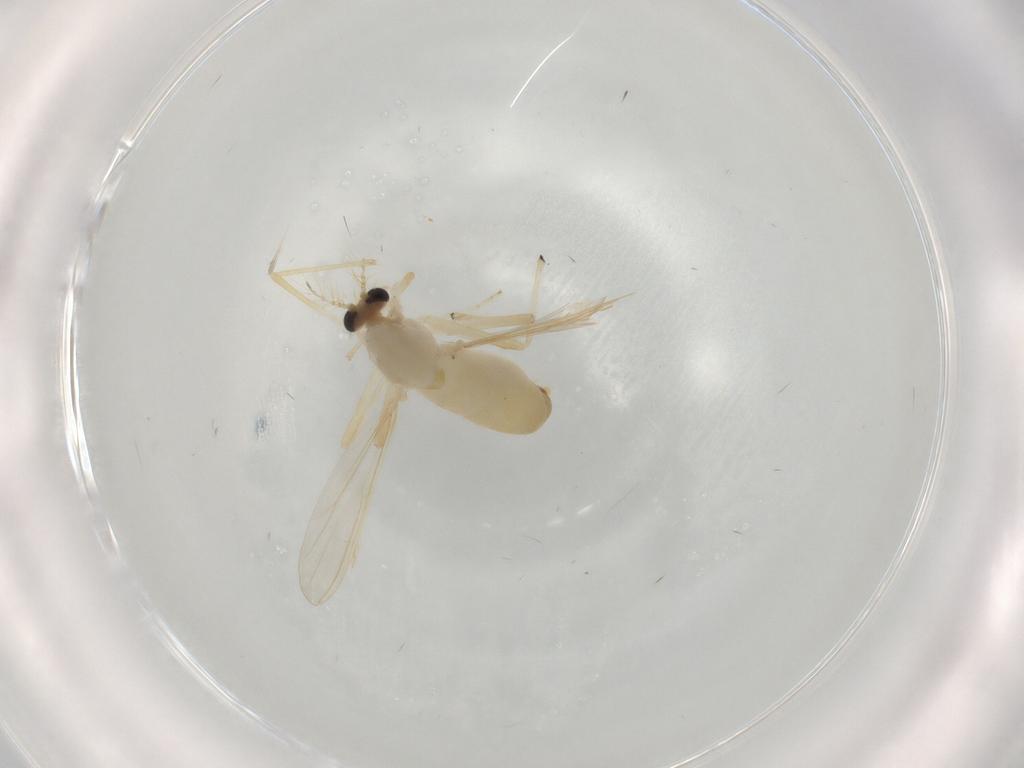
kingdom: Animalia
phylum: Arthropoda
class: Insecta
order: Diptera
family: Chironomidae
